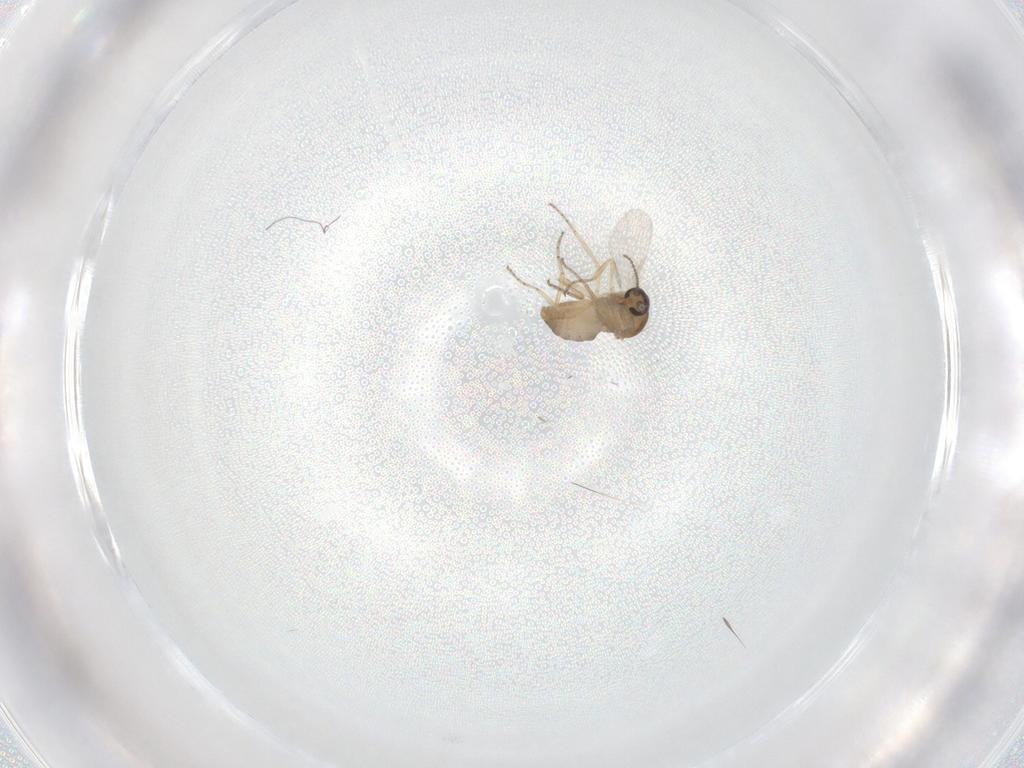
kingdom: Animalia
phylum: Arthropoda
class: Insecta
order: Diptera
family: Ceratopogonidae
